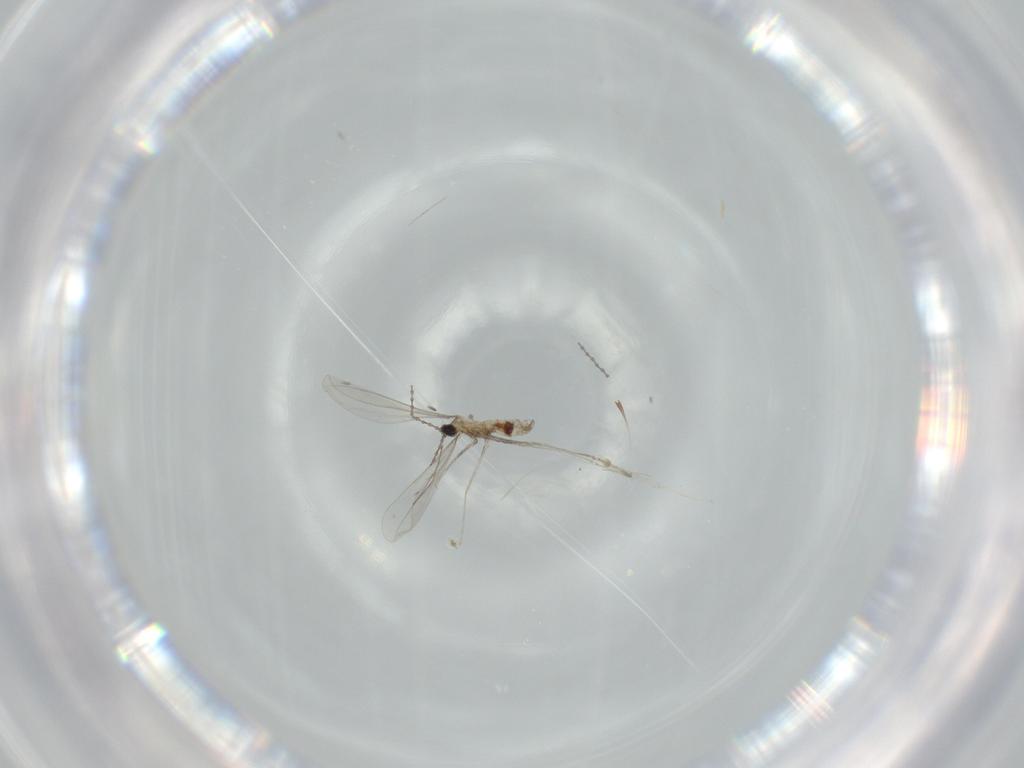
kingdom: Animalia
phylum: Arthropoda
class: Insecta
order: Diptera
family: Cecidomyiidae
